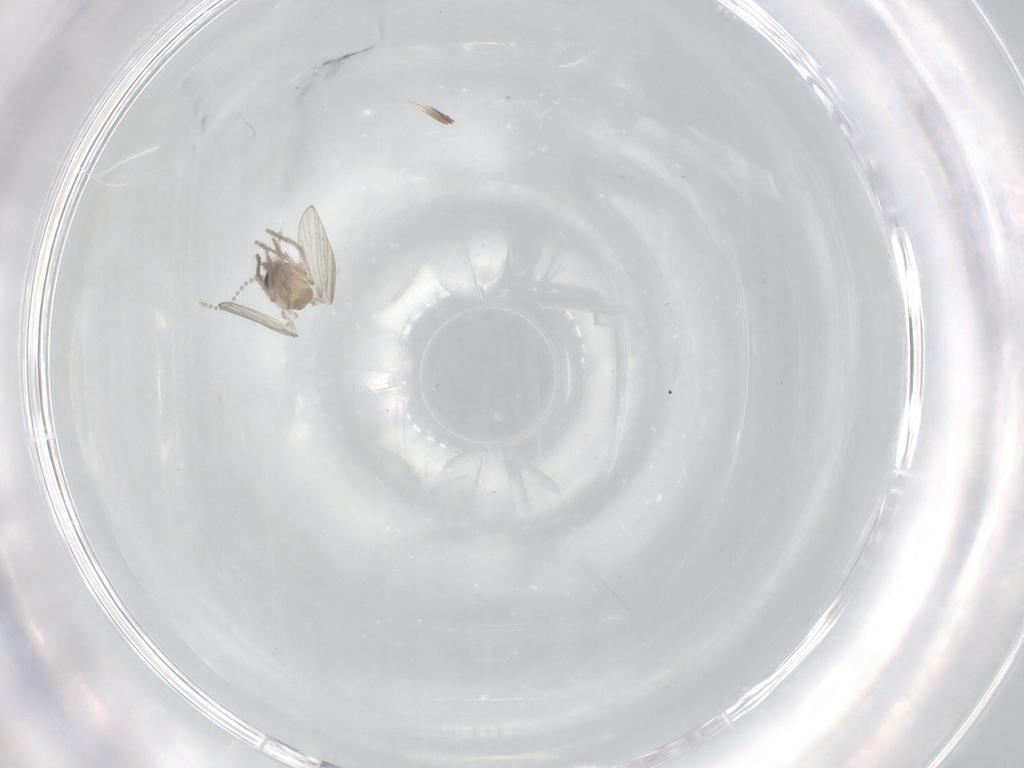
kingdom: Animalia
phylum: Arthropoda
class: Insecta
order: Diptera
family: Psychodidae
